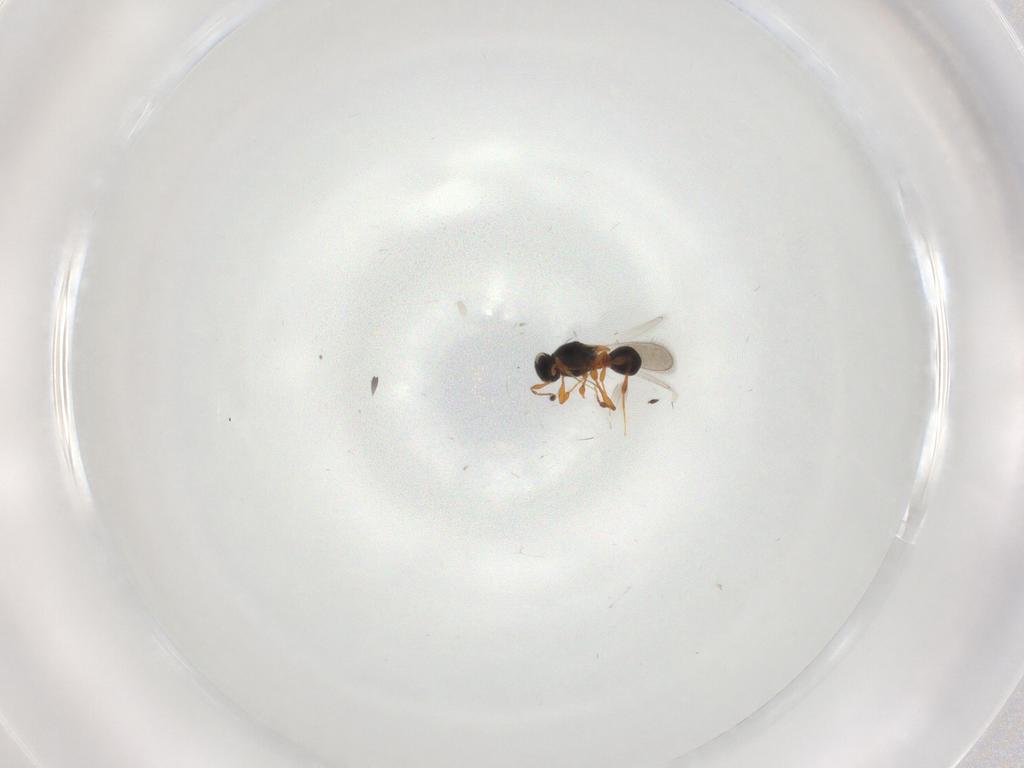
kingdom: Animalia
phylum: Arthropoda
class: Insecta
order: Hymenoptera
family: Platygastridae
